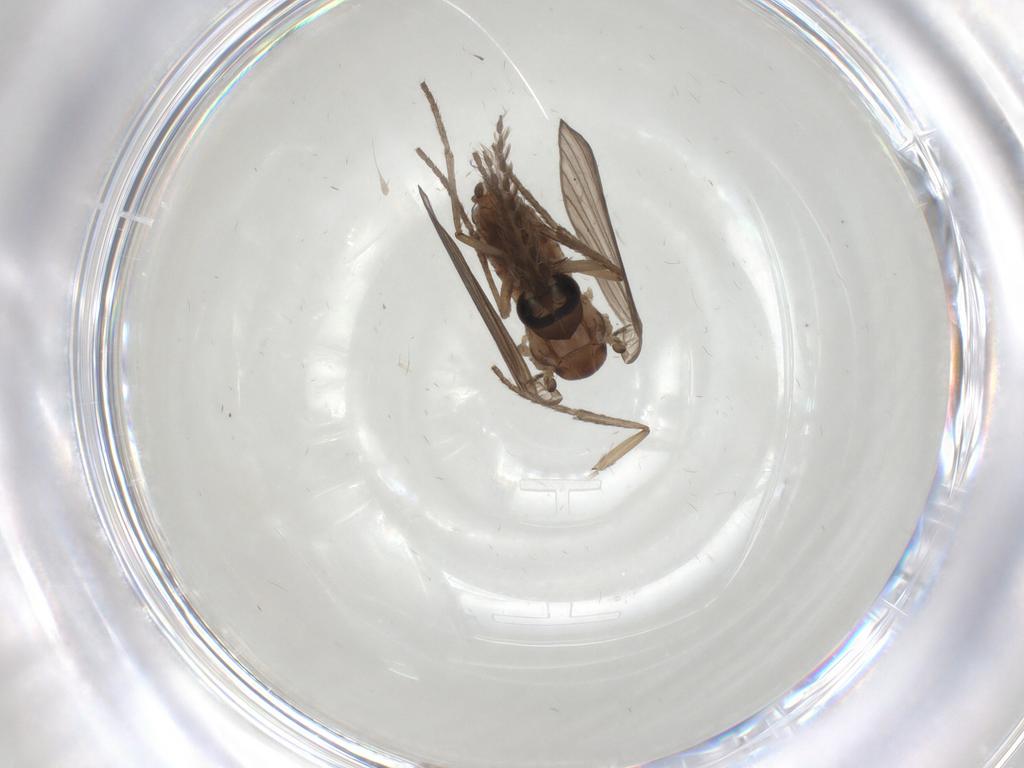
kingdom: Animalia
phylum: Arthropoda
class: Insecta
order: Diptera
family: Psychodidae
